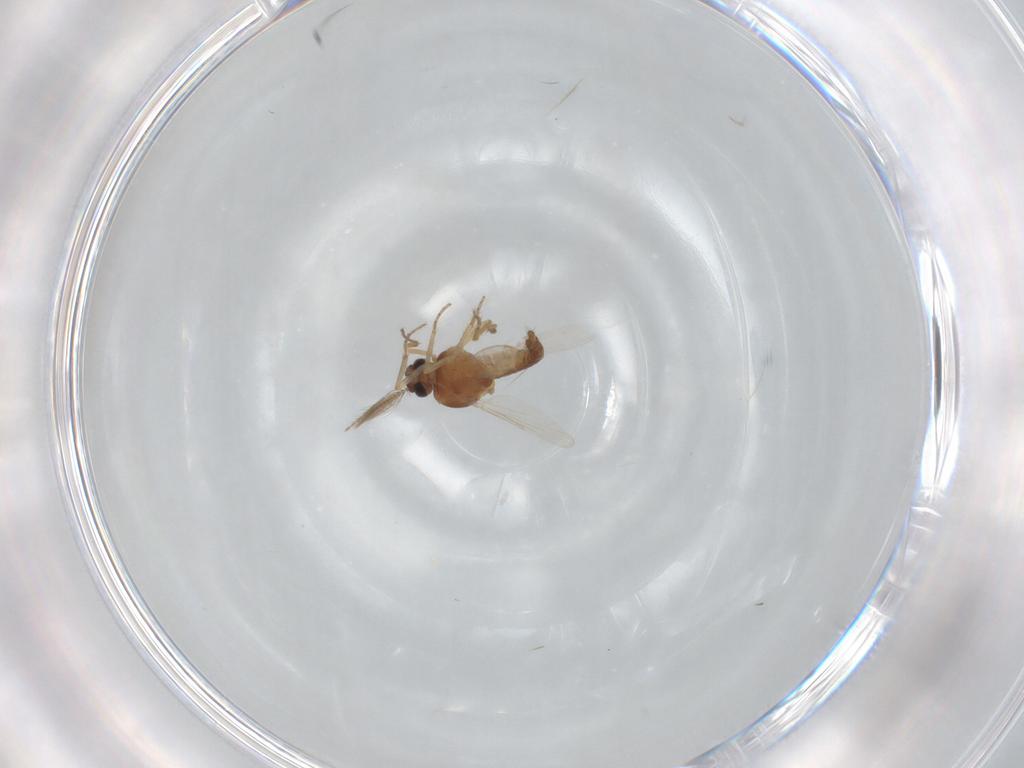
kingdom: Animalia
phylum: Arthropoda
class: Insecta
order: Diptera
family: Ceratopogonidae
